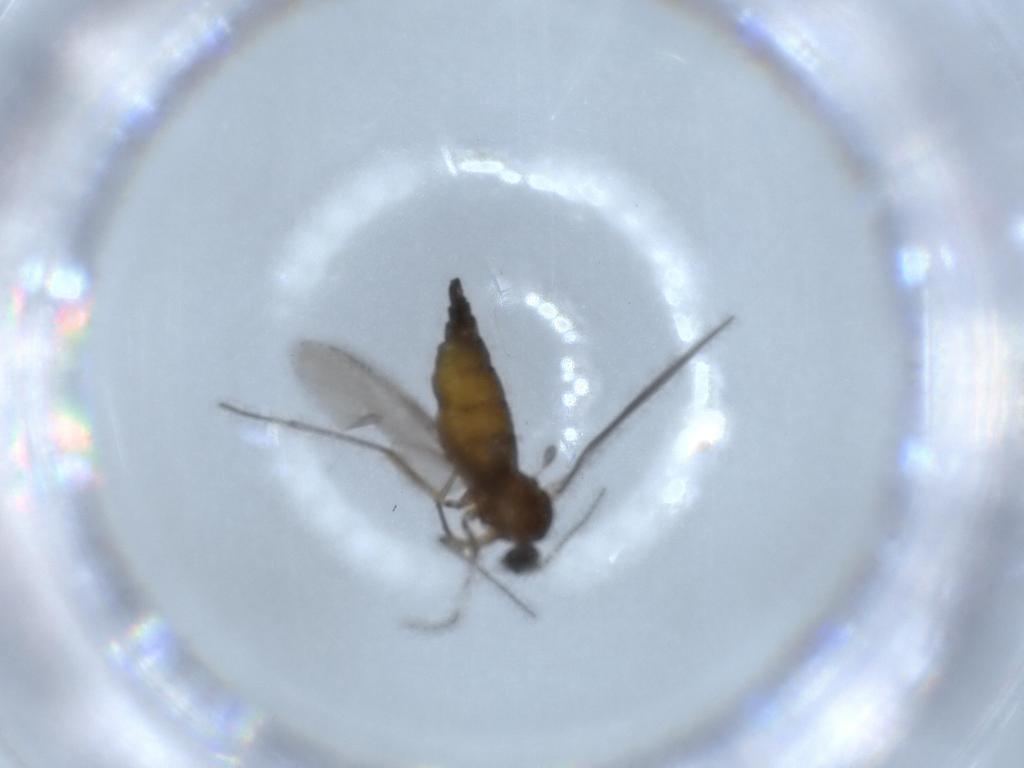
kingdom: Animalia
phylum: Arthropoda
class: Insecta
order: Diptera
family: Sciaridae
